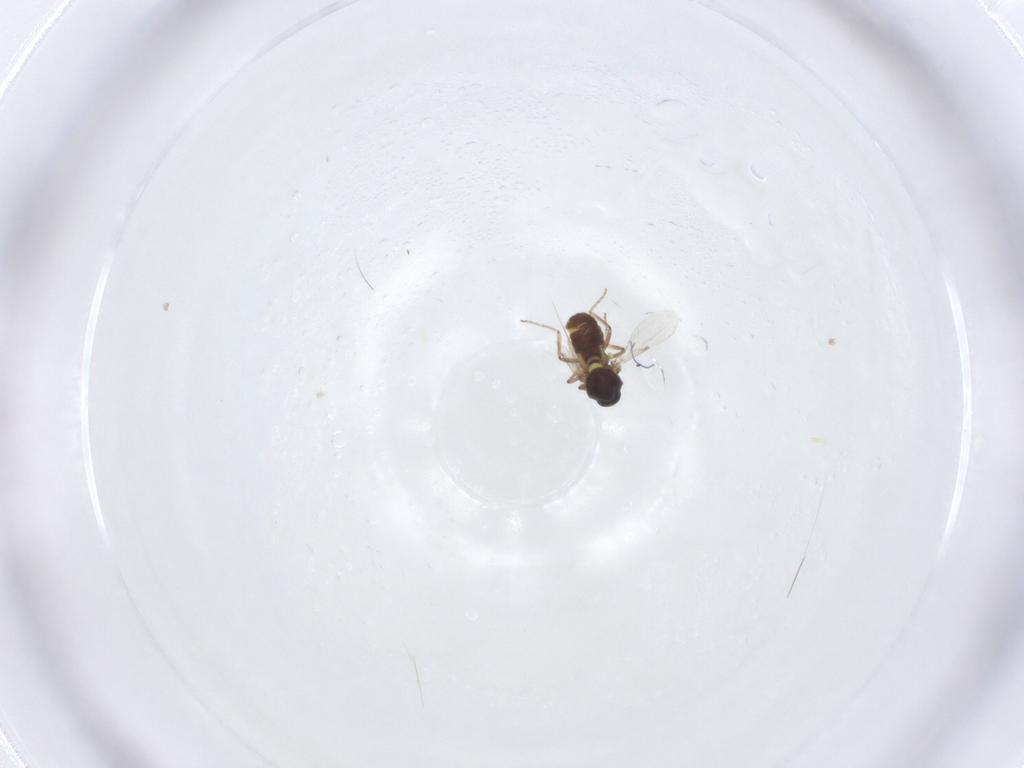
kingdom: Animalia
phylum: Arthropoda
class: Insecta
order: Diptera
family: Ceratopogonidae
